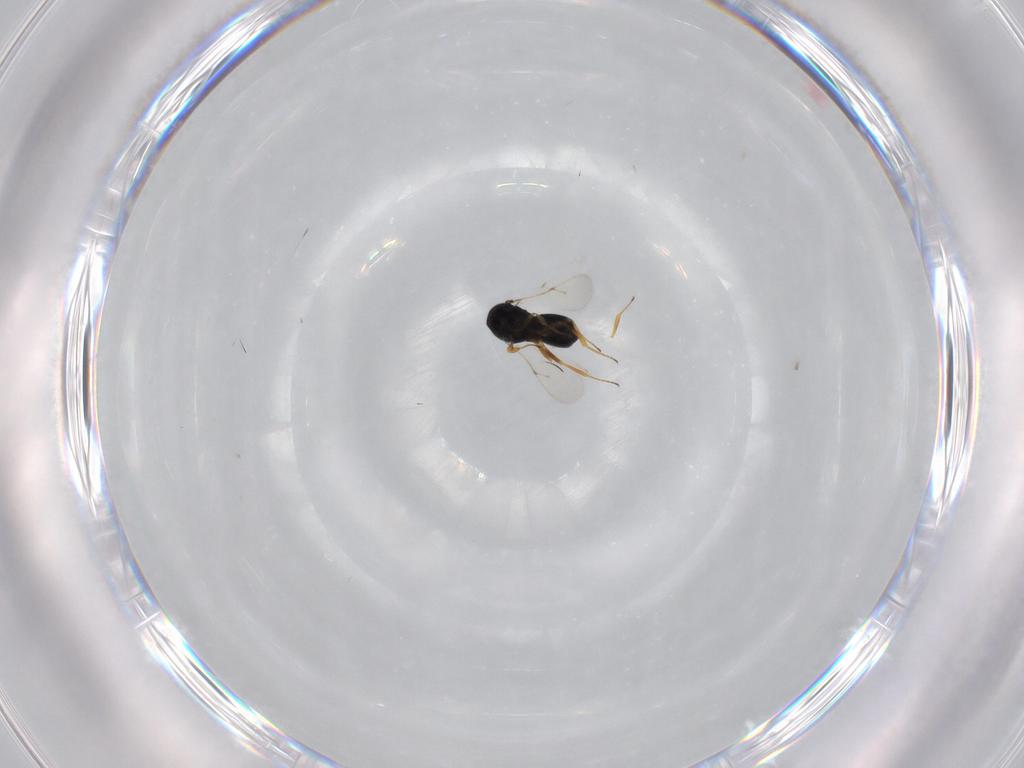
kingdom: Animalia
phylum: Arthropoda
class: Insecta
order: Hymenoptera
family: Scelionidae
